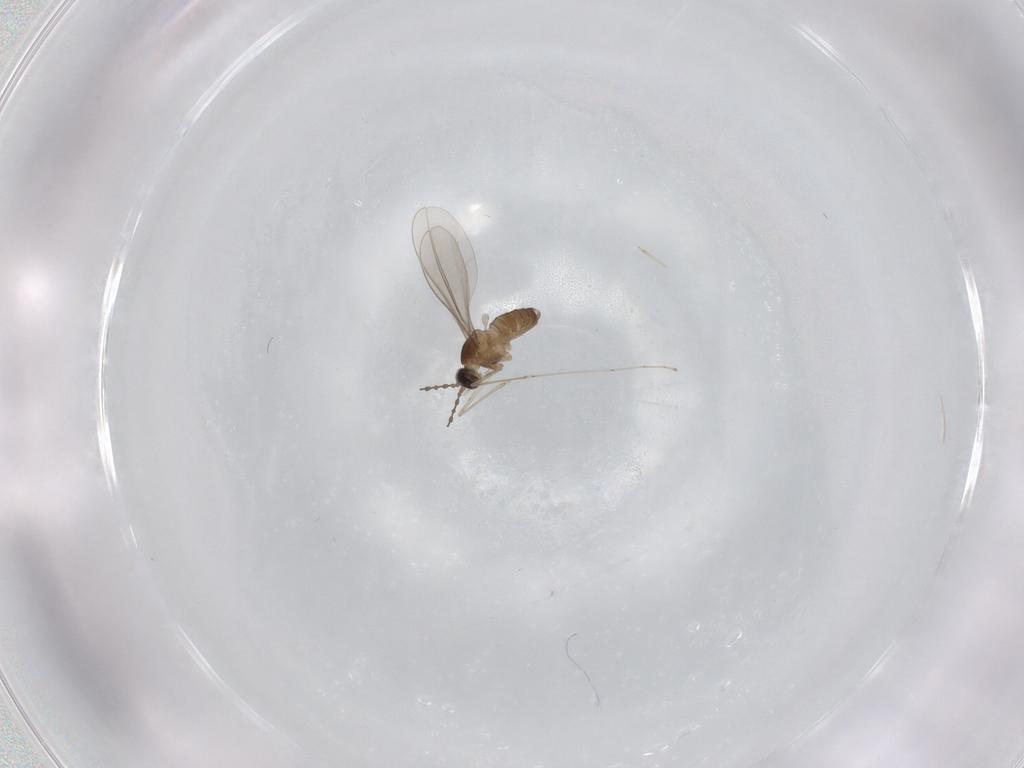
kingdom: Animalia
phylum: Arthropoda
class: Insecta
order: Diptera
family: Cecidomyiidae
